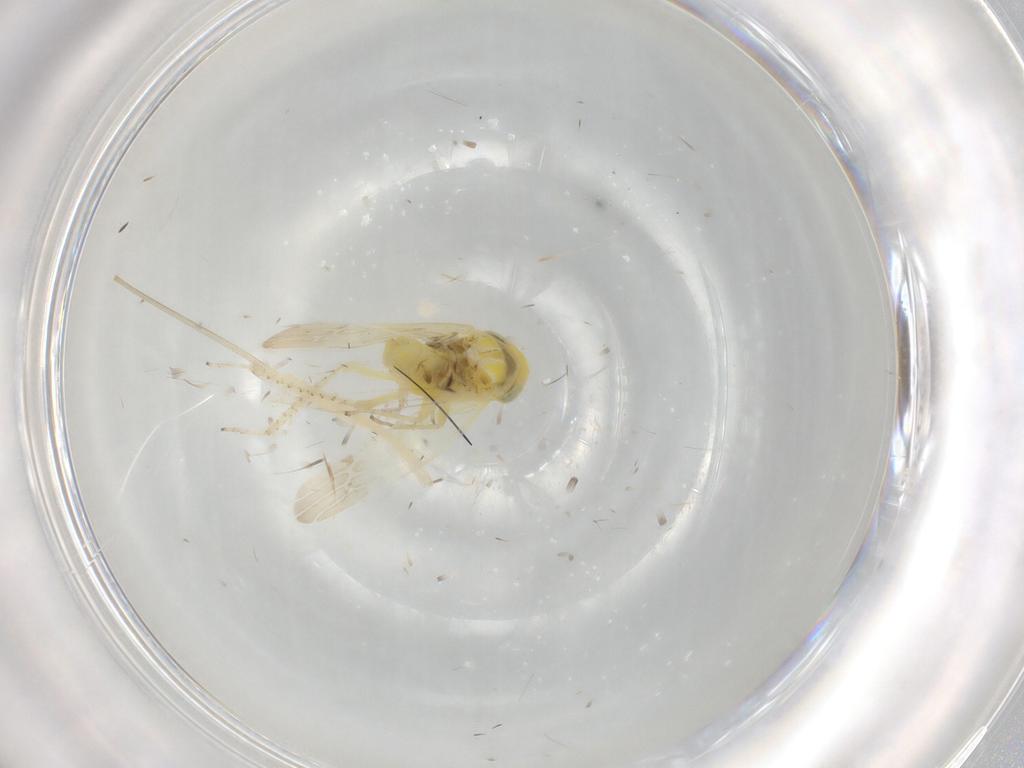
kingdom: Animalia
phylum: Arthropoda
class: Insecta
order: Hemiptera
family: Cicadellidae
